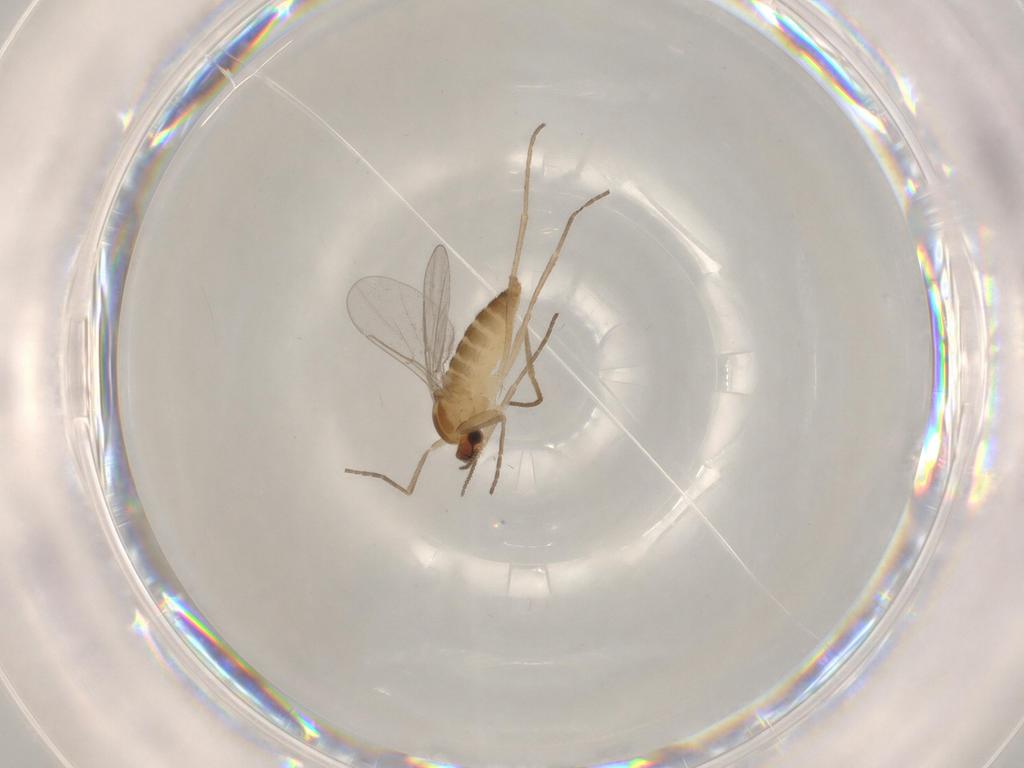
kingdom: Animalia
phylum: Arthropoda
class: Insecta
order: Diptera
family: Cecidomyiidae
